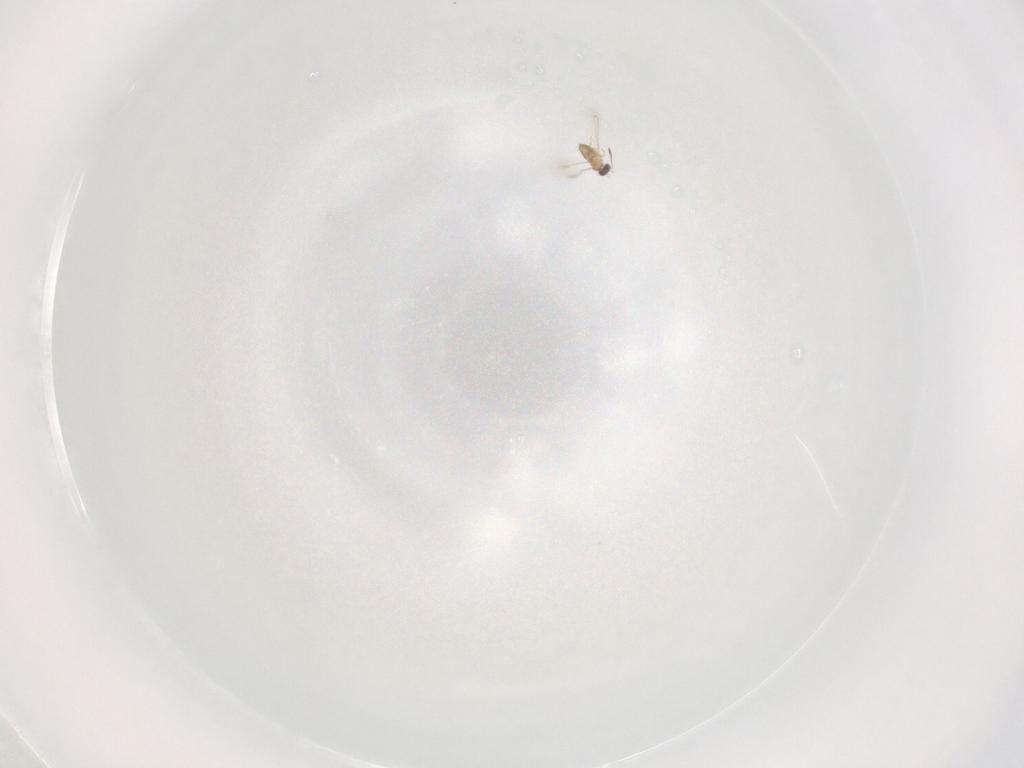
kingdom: Animalia
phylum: Arthropoda
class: Insecta
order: Hymenoptera
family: Mymaridae
